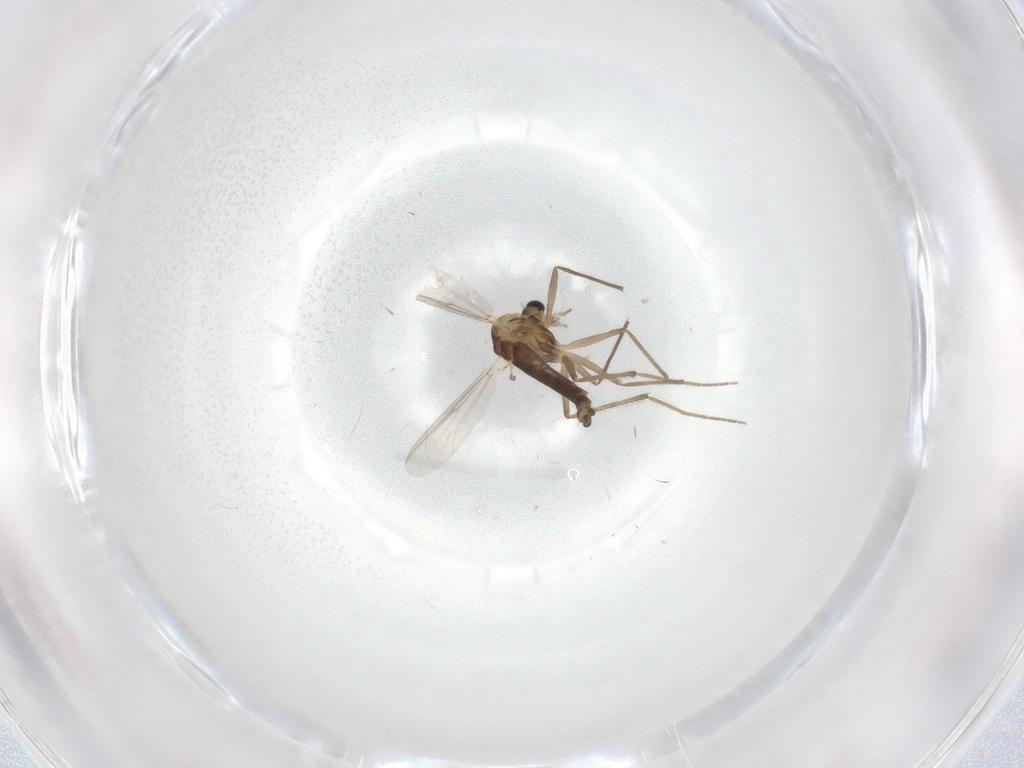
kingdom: Animalia
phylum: Arthropoda
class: Insecta
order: Diptera
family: Chironomidae
